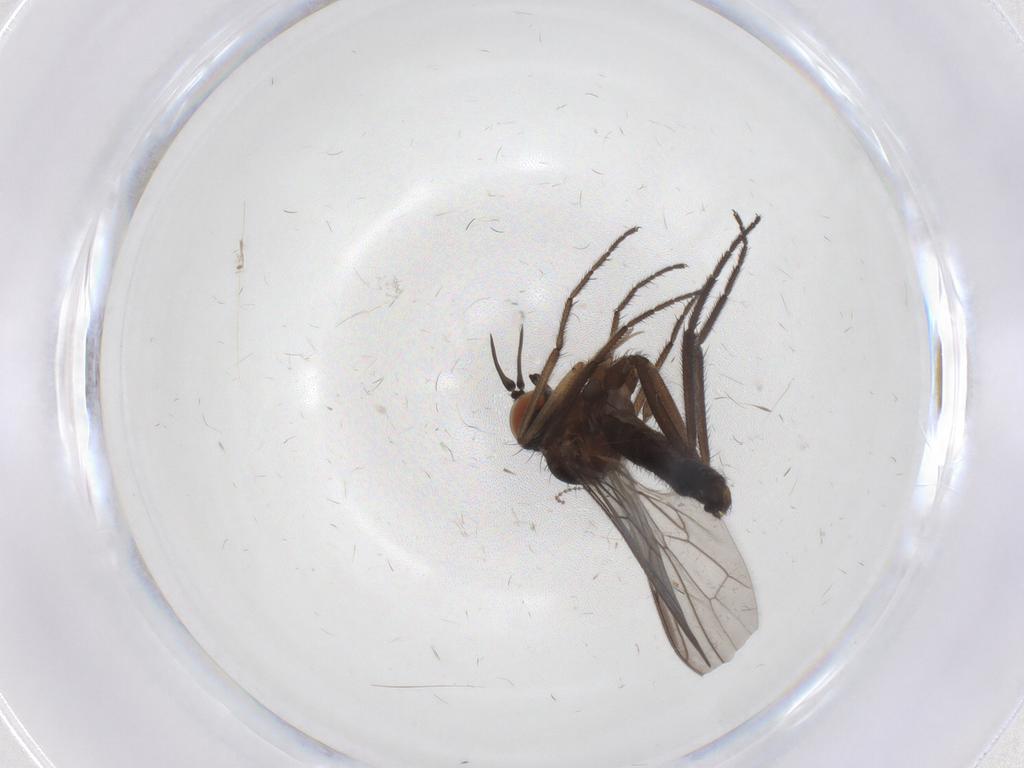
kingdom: Animalia
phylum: Arthropoda
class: Insecta
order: Diptera
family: Empididae
